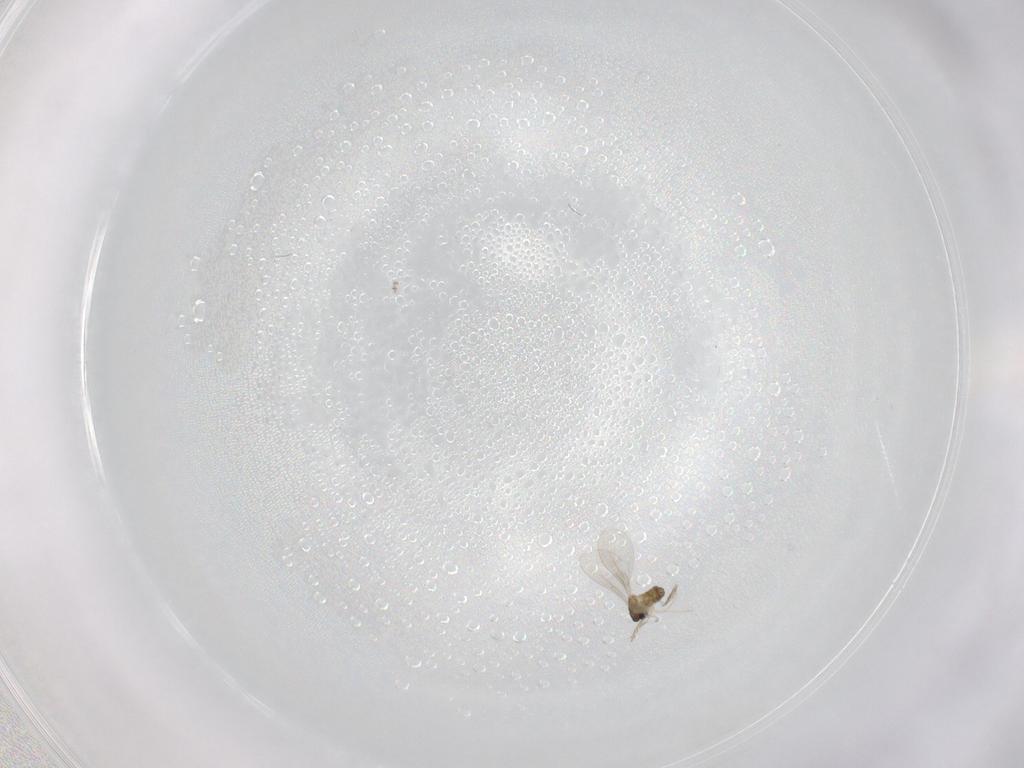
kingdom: Animalia
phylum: Arthropoda
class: Insecta
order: Diptera
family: Cecidomyiidae
